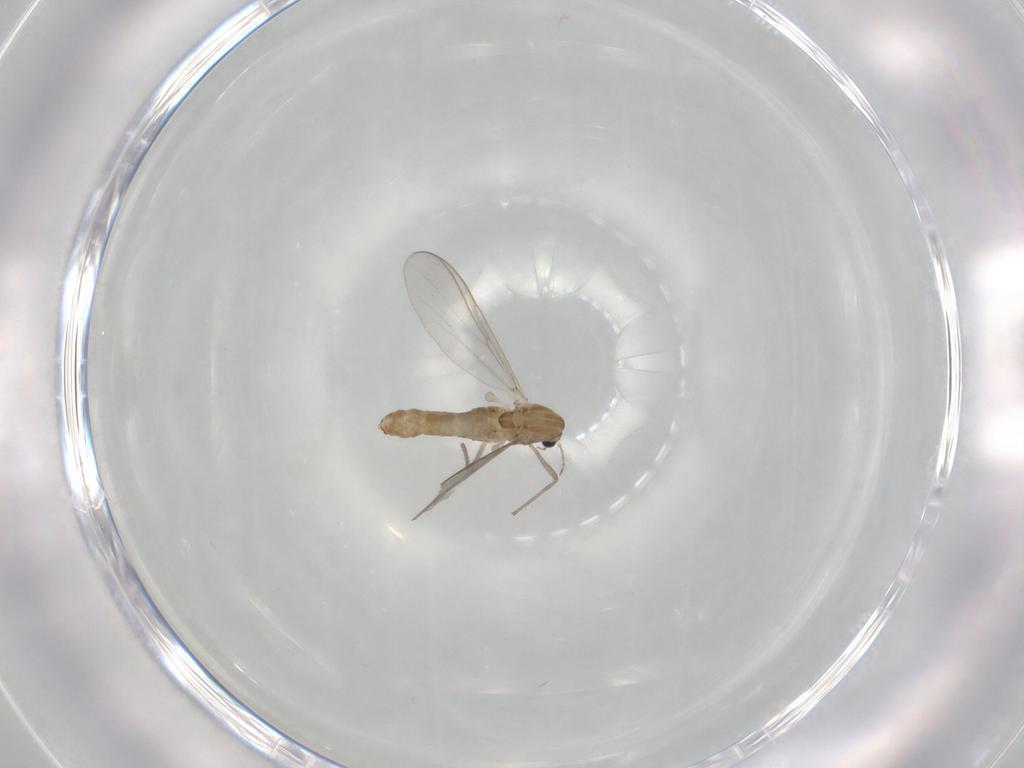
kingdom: Animalia
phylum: Arthropoda
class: Insecta
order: Diptera
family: Chironomidae
